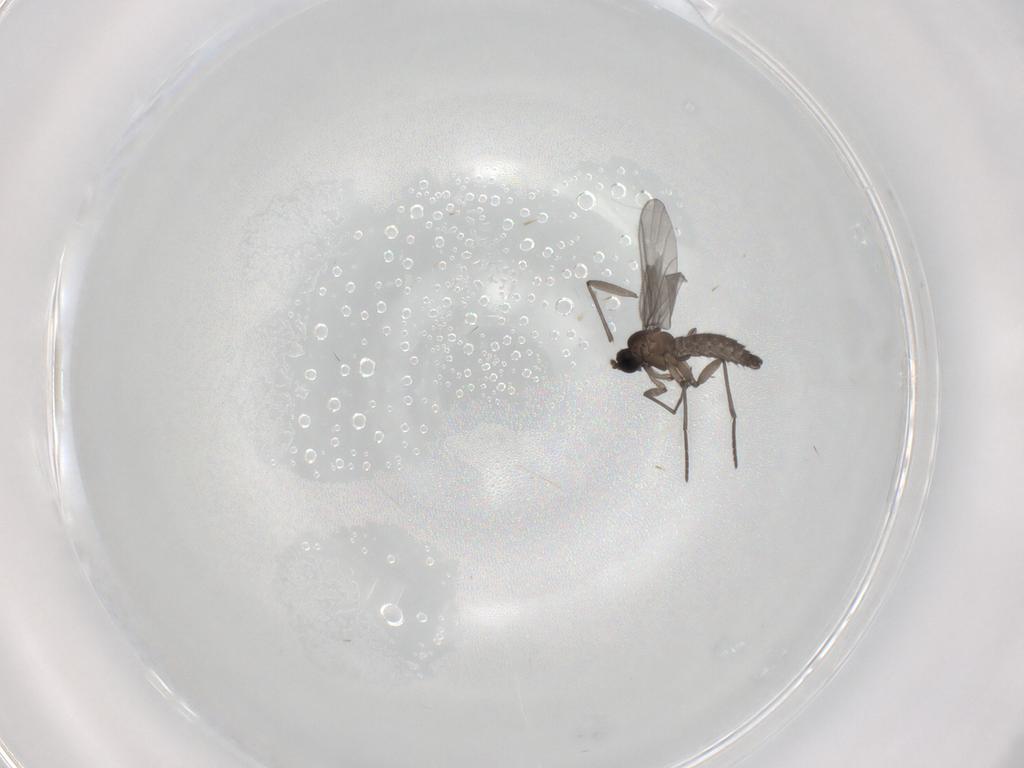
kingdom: Animalia
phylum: Arthropoda
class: Insecta
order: Diptera
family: Sciaridae
